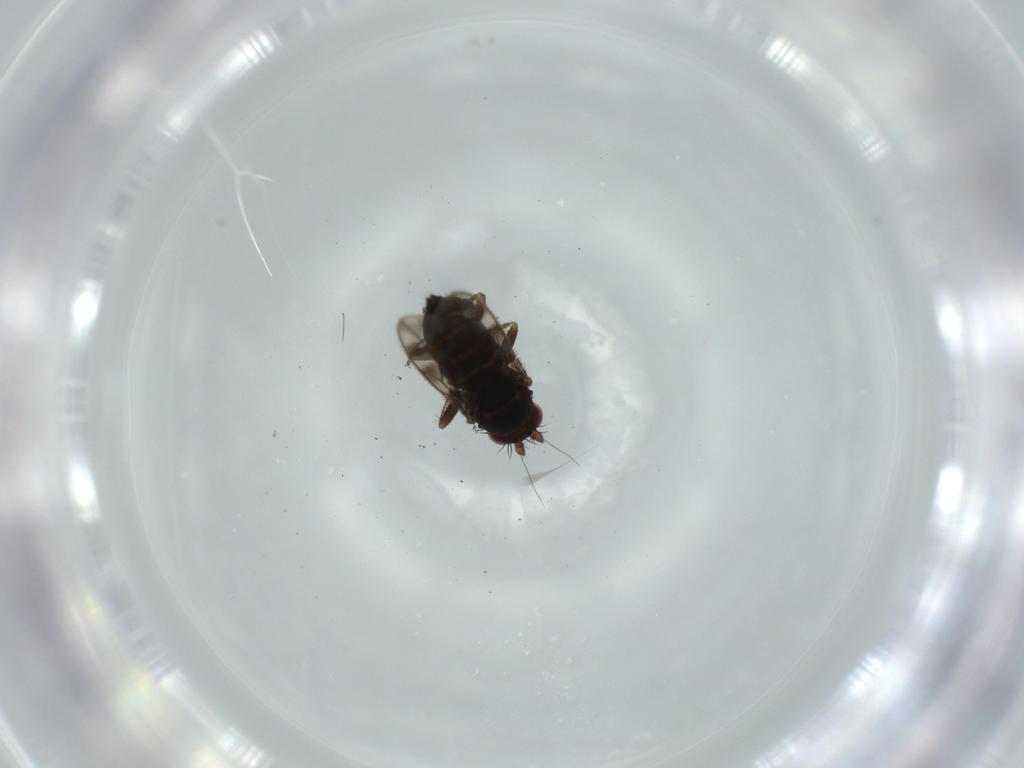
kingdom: Animalia
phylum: Arthropoda
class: Insecta
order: Diptera
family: Sphaeroceridae
